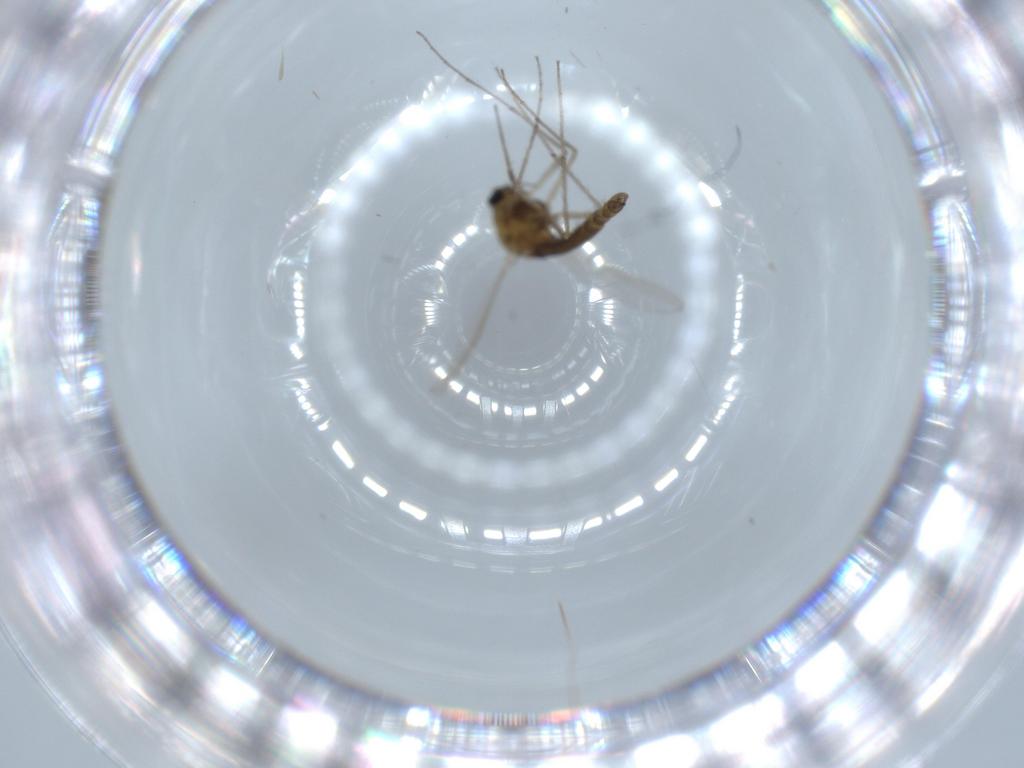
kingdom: Animalia
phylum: Arthropoda
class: Insecta
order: Diptera
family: Chironomidae
